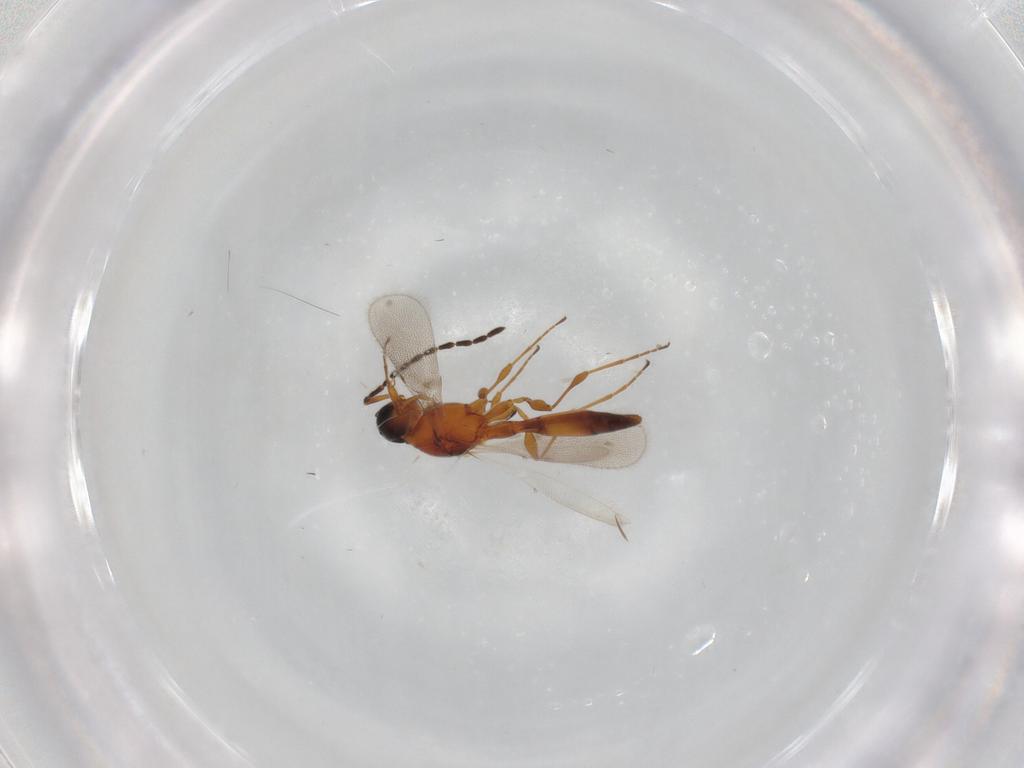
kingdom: Animalia
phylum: Arthropoda
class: Insecta
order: Hymenoptera
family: Scelionidae
